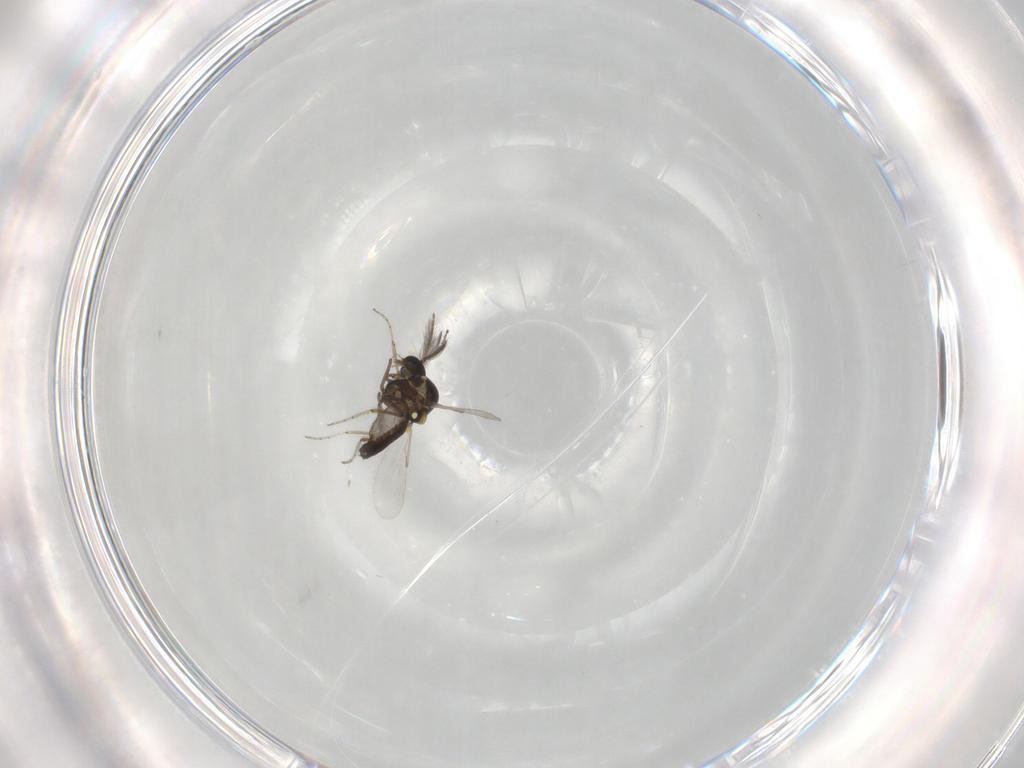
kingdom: Animalia
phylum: Arthropoda
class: Insecta
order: Diptera
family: Ceratopogonidae
